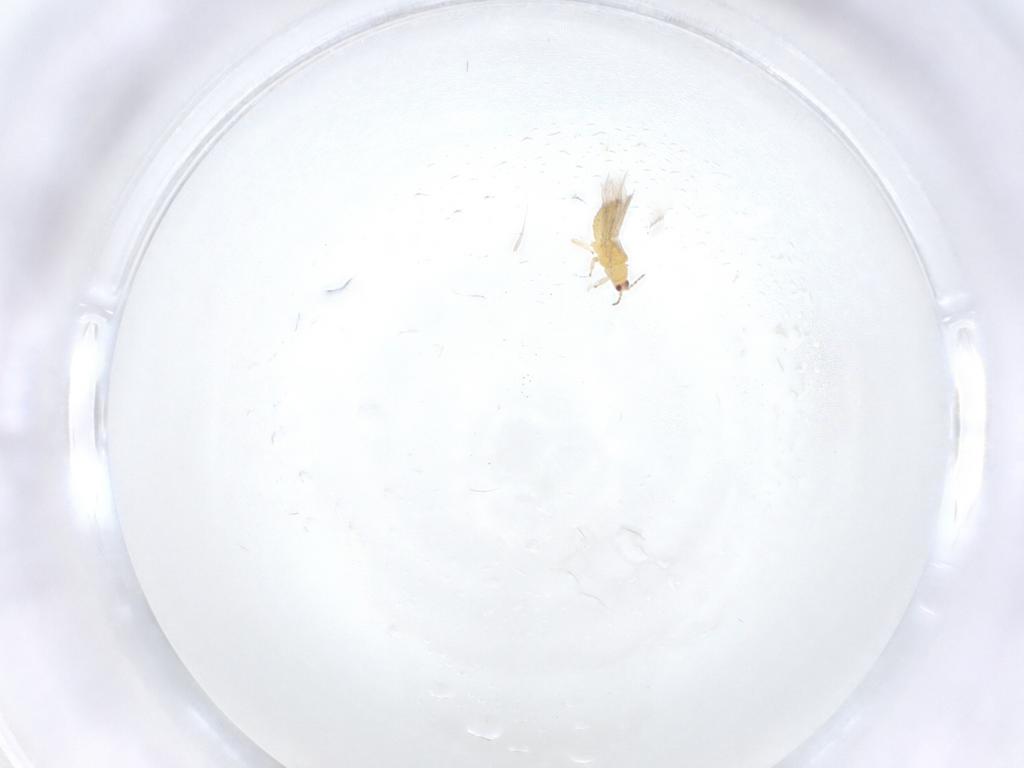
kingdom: Animalia
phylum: Arthropoda
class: Insecta
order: Thysanoptera
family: Thripidae
